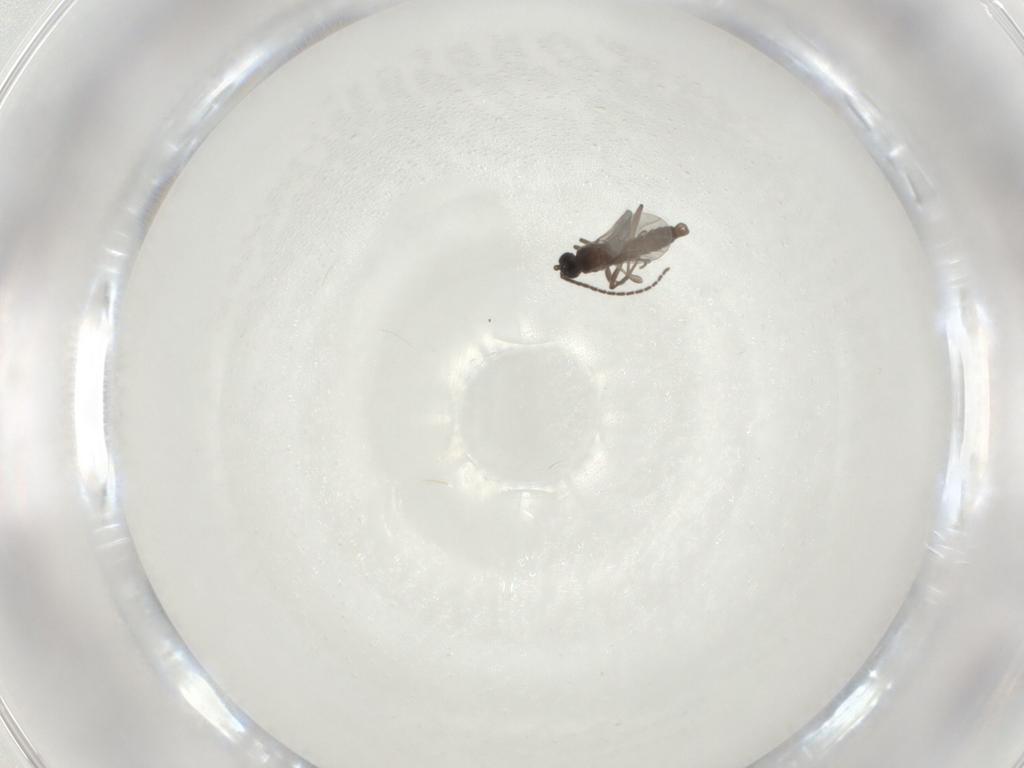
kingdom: Animalia
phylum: Arthropoda
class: Insecta
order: Diptera
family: Sciaridae
